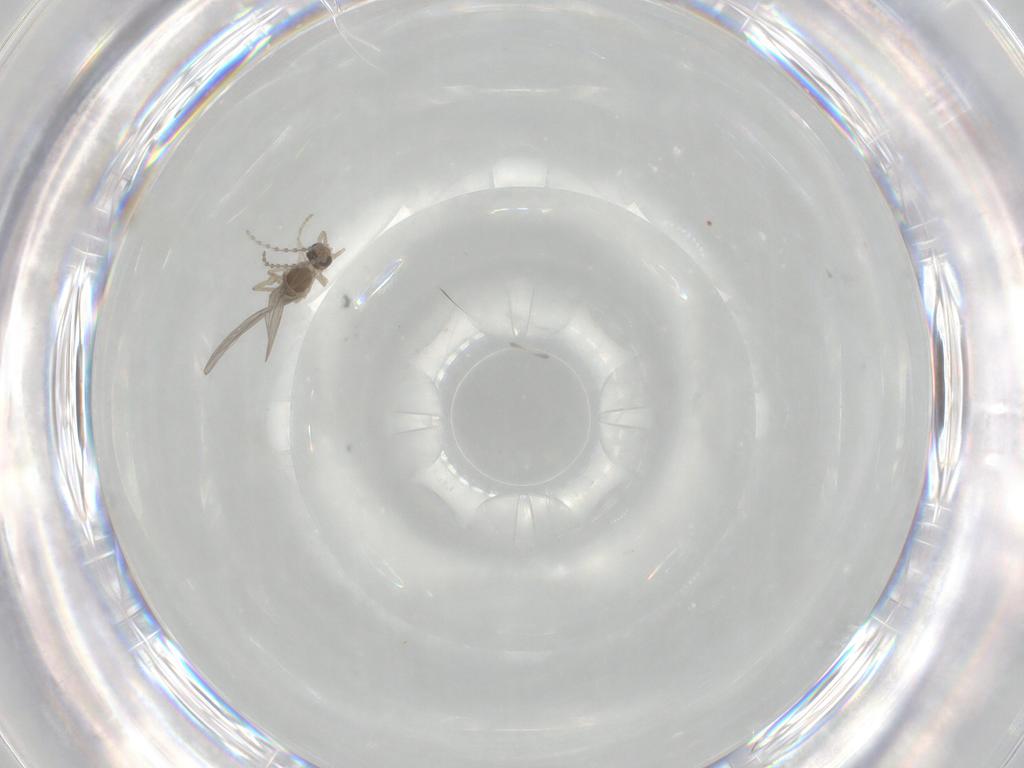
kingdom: Animalia
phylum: Arthropoda
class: Insecta
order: Diptera
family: Cecidomyiidae
